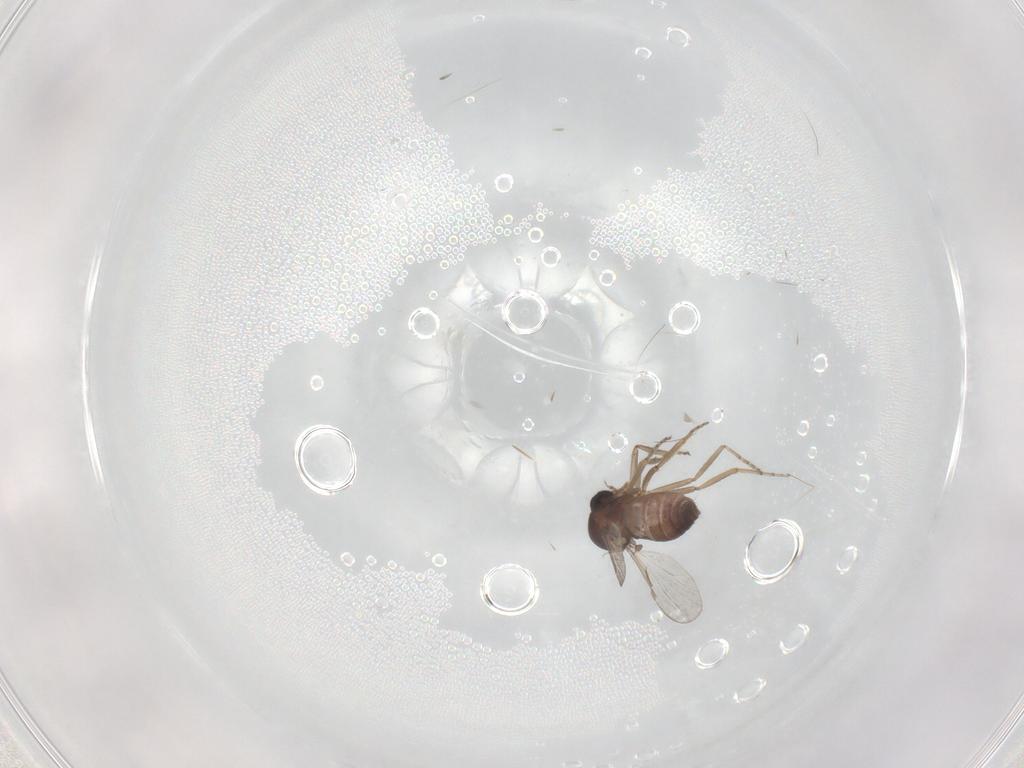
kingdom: Animalia
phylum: Arthropoda
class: Insecta
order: Diptera
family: Ceratopogonidae
